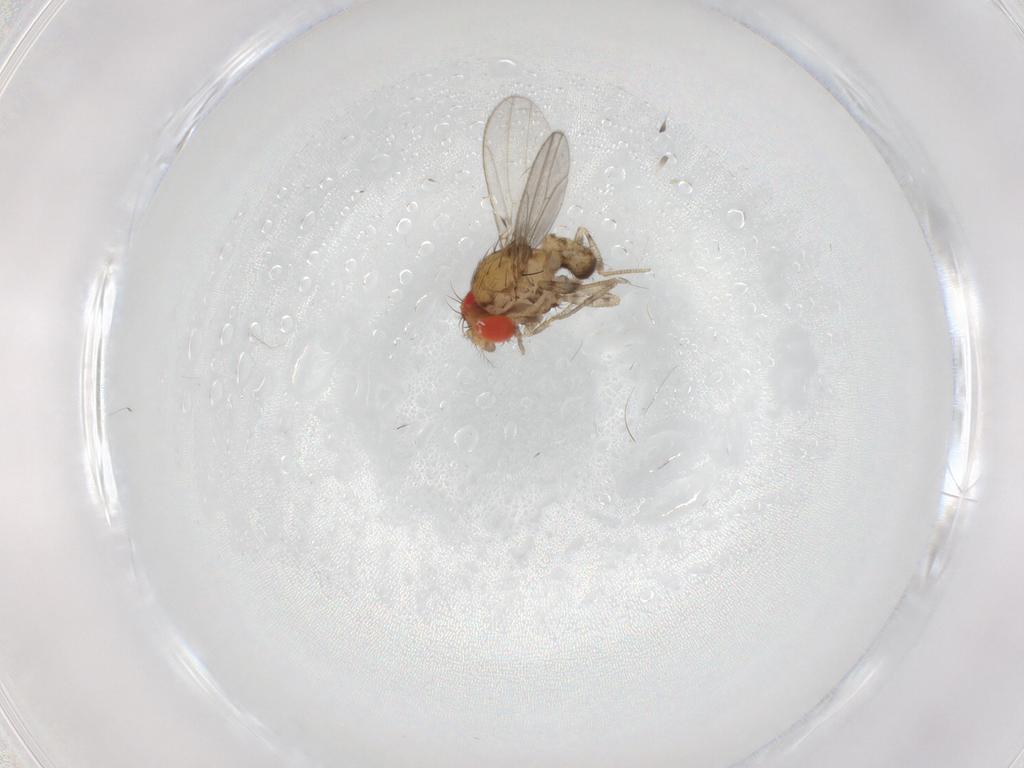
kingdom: Animalia
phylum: Arthropoda
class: Insecta
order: Diptera
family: Drosophilidae
